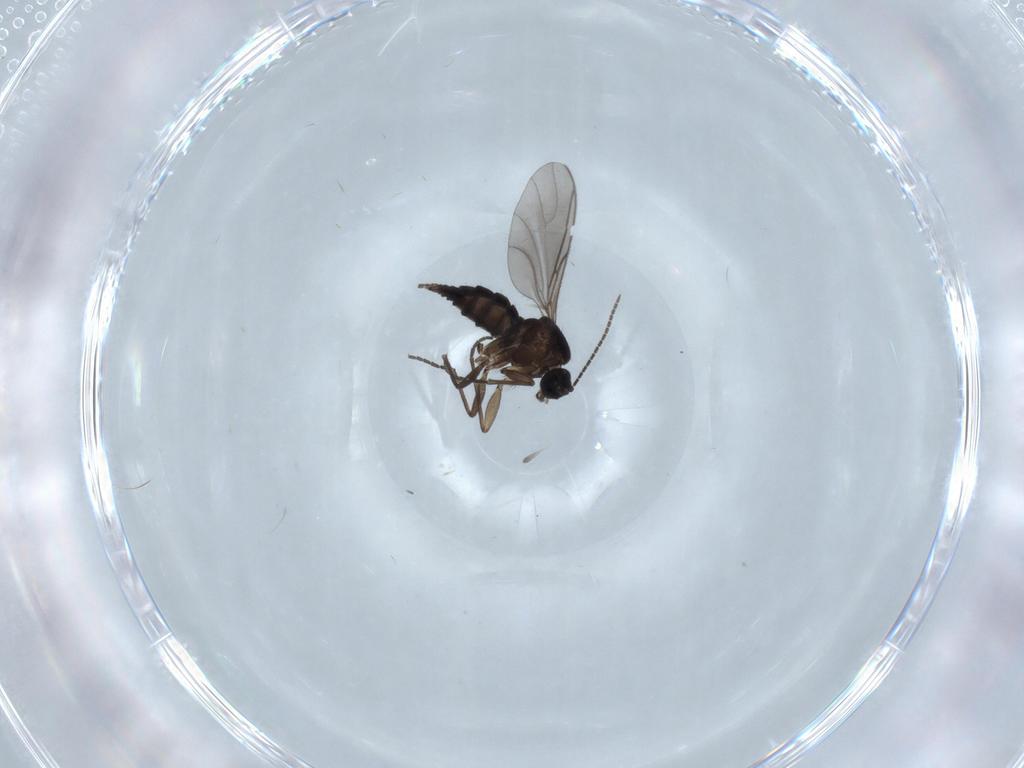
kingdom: Animalia
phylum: Arthropoda
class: Insecta
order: Diptera
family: Sciaridae
